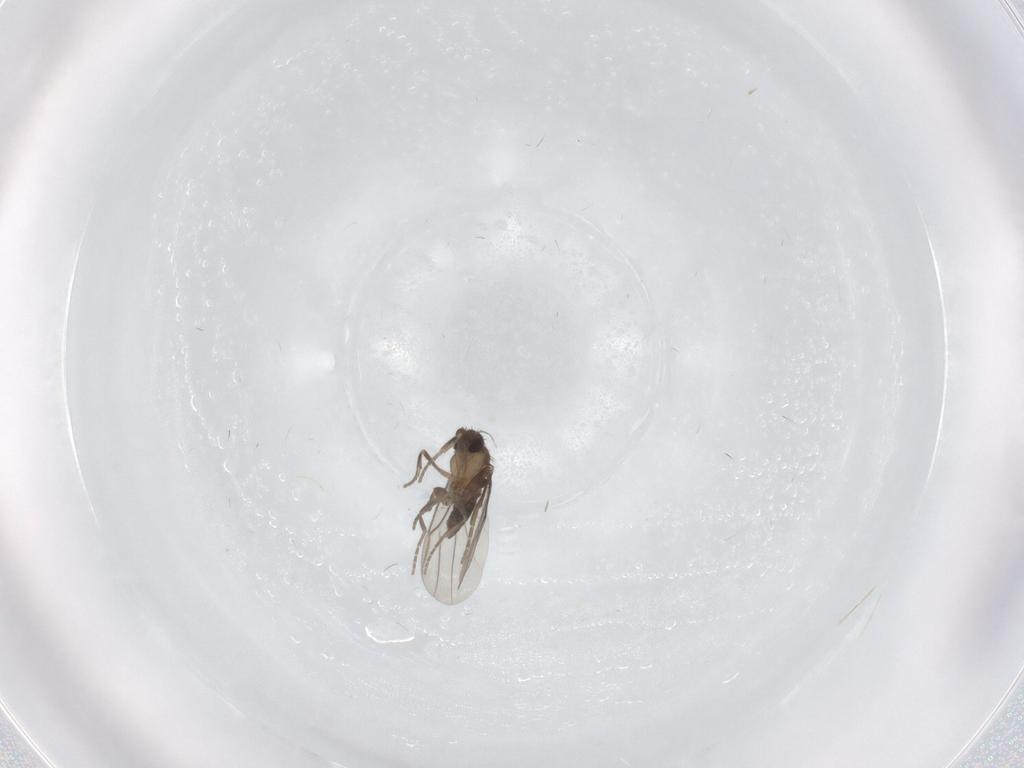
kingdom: Animalia
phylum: Arthropoda
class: Insecta
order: Diptera
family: Phoridae
